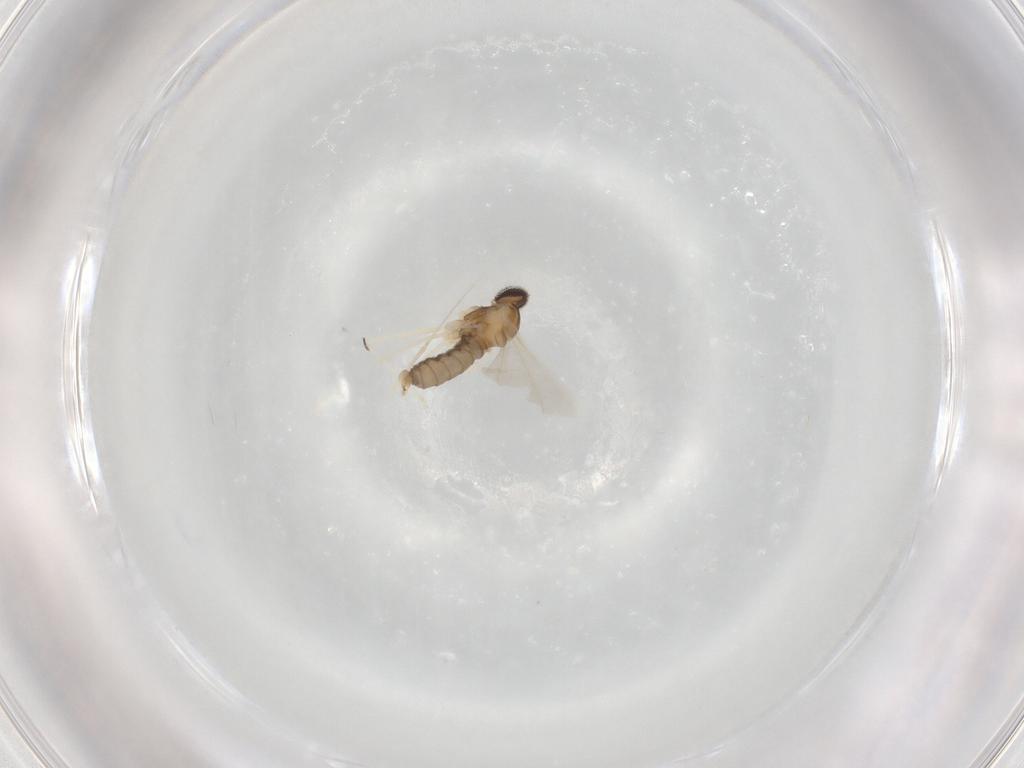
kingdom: Animalia
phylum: Arthropoda
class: Insecta
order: Diptera
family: Cecidomyiidae
